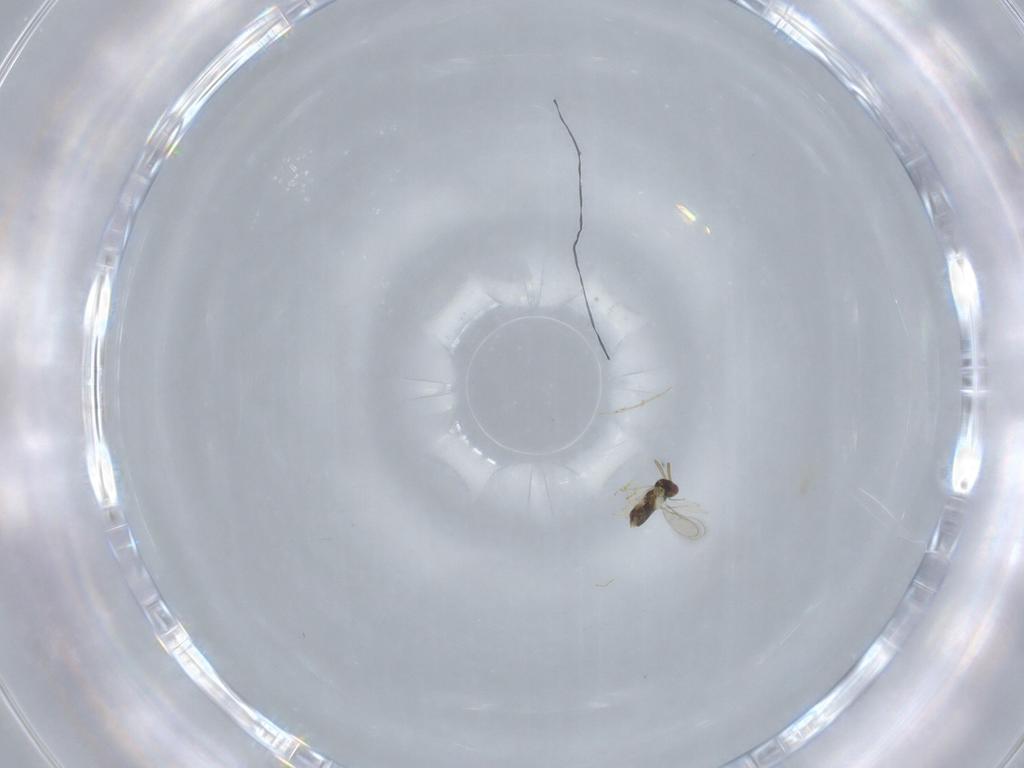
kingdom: Animalia
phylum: Arthropoda
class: Insecta
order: Hymenoptera
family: Aphelinidae
